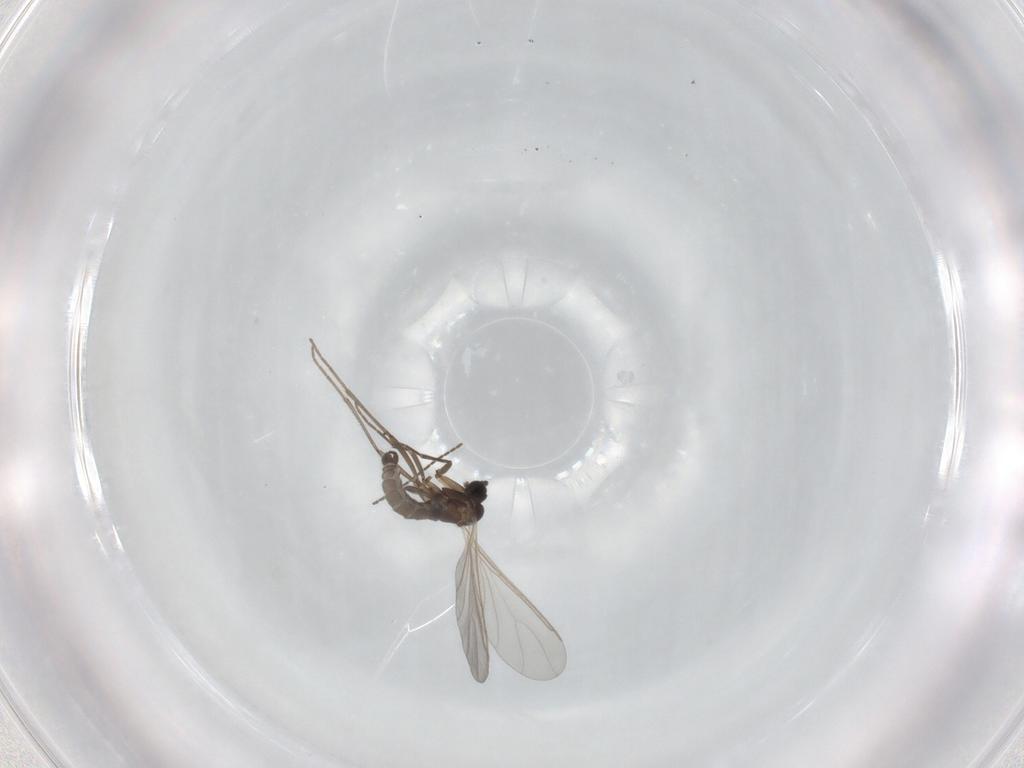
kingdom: Animalia
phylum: Arthropoda
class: Insecta
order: Diptera
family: Sciaridae
